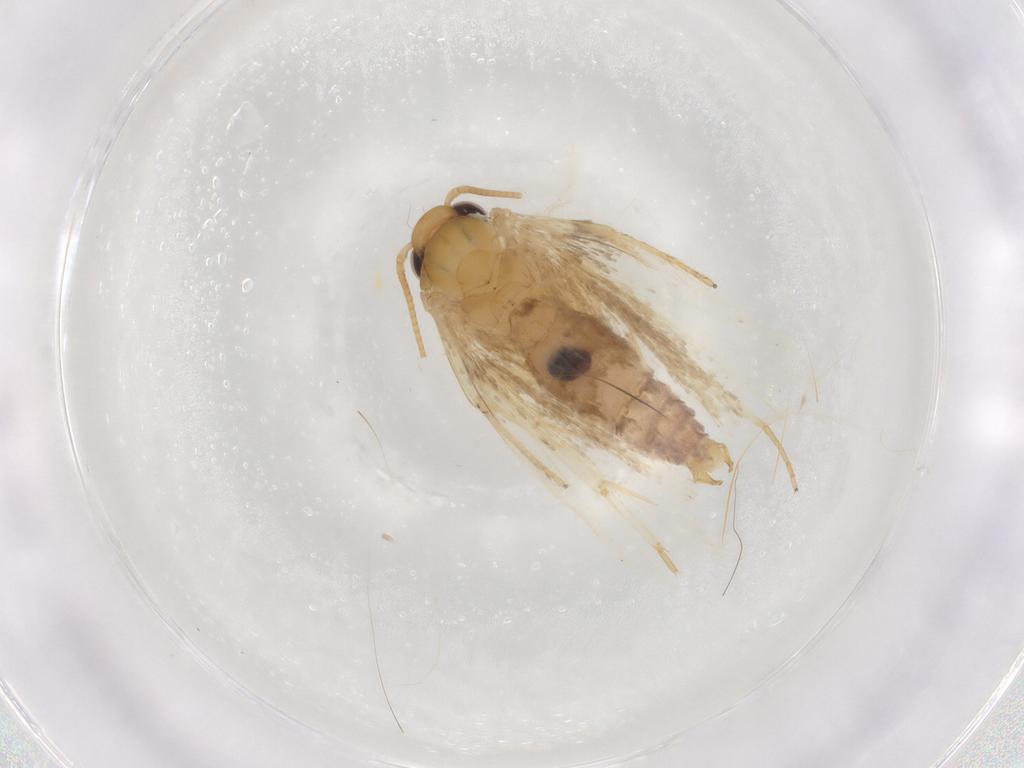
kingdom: Animalia
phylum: Arthropoda
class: Insecta
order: Lepidoptera
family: Depressariidae
